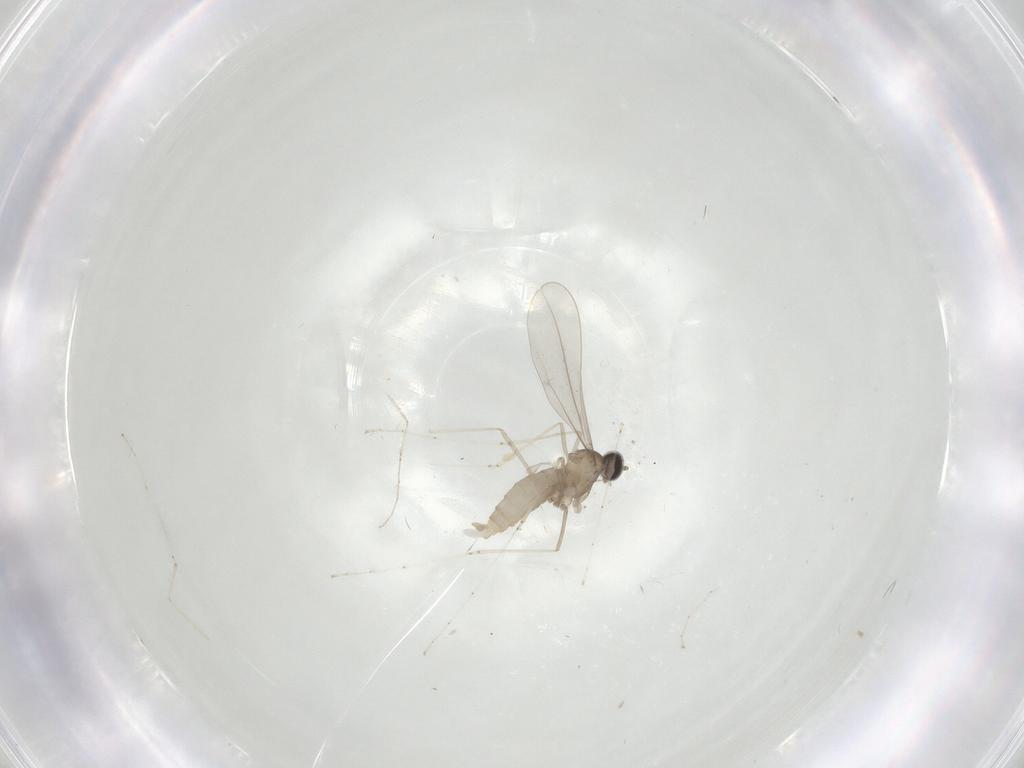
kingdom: Animalia
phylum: Arthropoda
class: Insecta
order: Diptera
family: Cecidomyiidae
